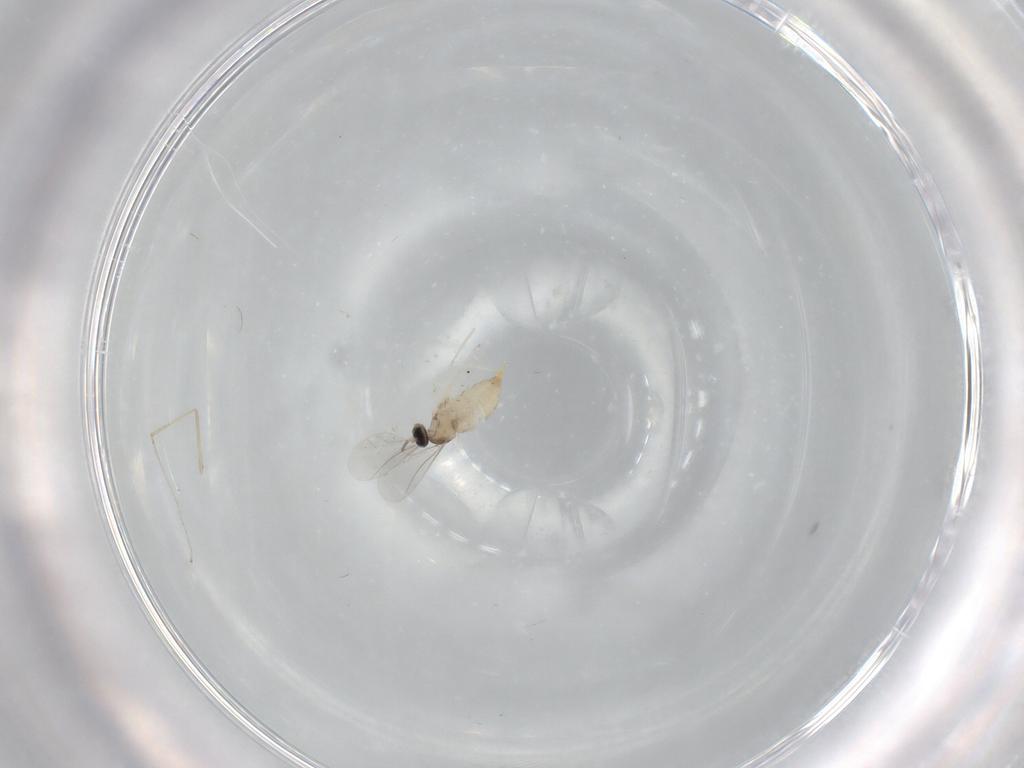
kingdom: Animalia
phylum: Arthropoda
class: Insecta
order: Diptera
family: Cecidomyiidae
